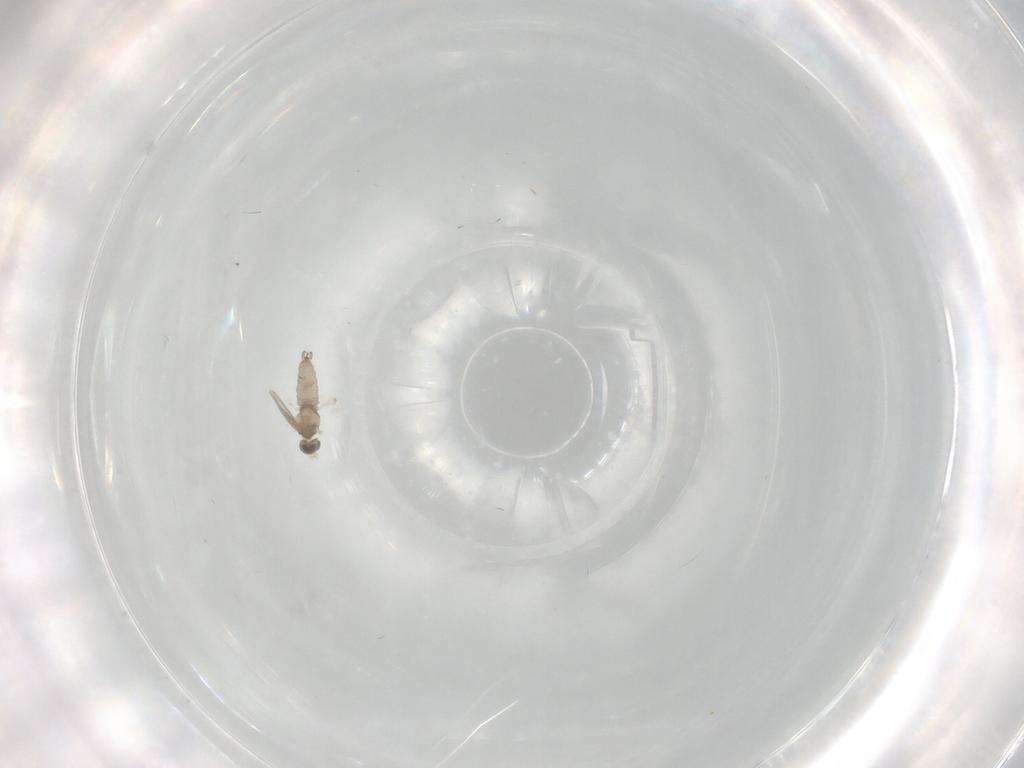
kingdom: Animalia
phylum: Arthropoda
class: Insecta
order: Diptera
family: Cecidomyiidae
